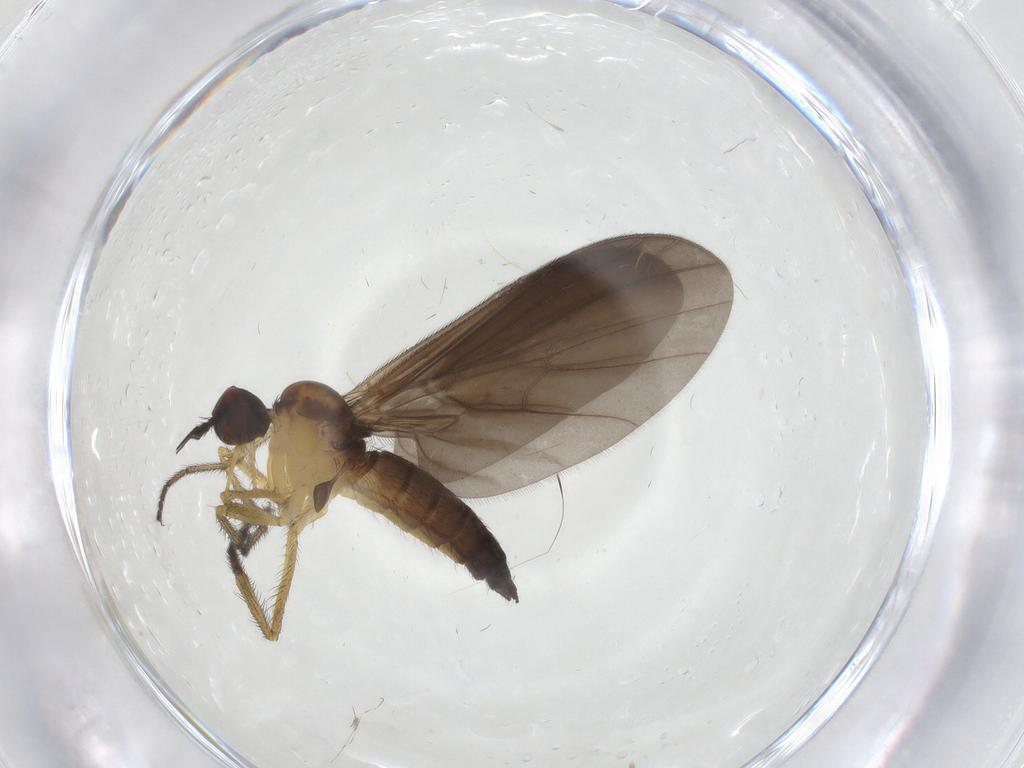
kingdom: Animalia
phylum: Arthropoda
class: Insecta
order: Diptera
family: Empididae
